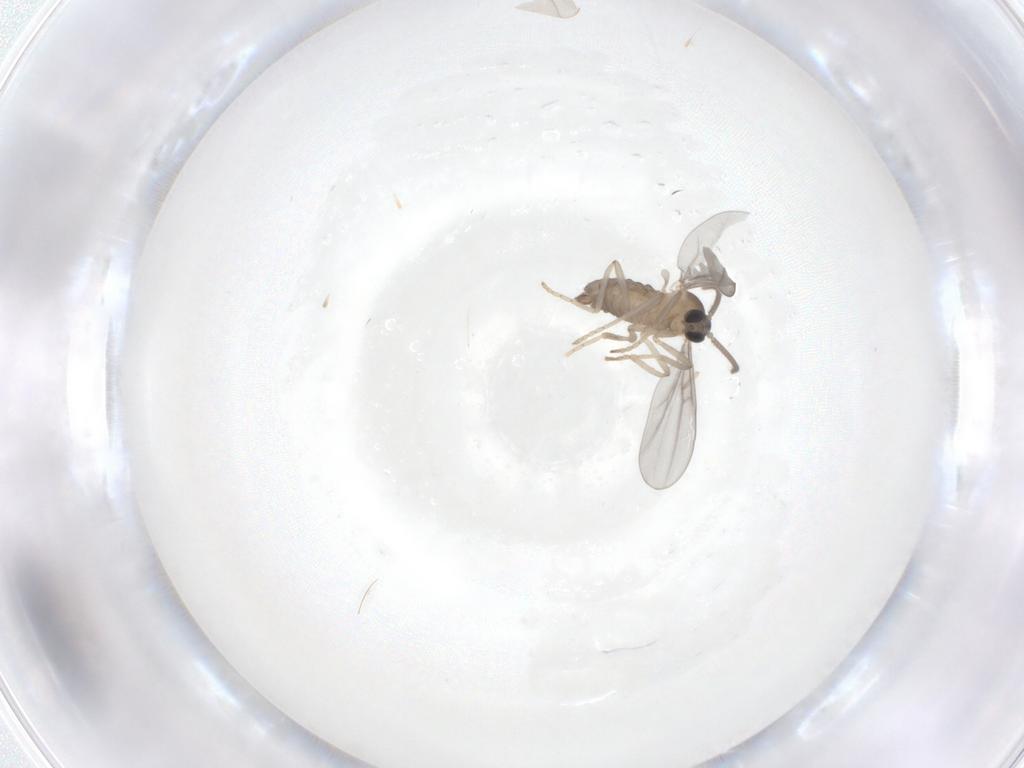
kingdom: Animalia
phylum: Arthropoda
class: Insecta
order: Diptera
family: Cecidomyiidae
